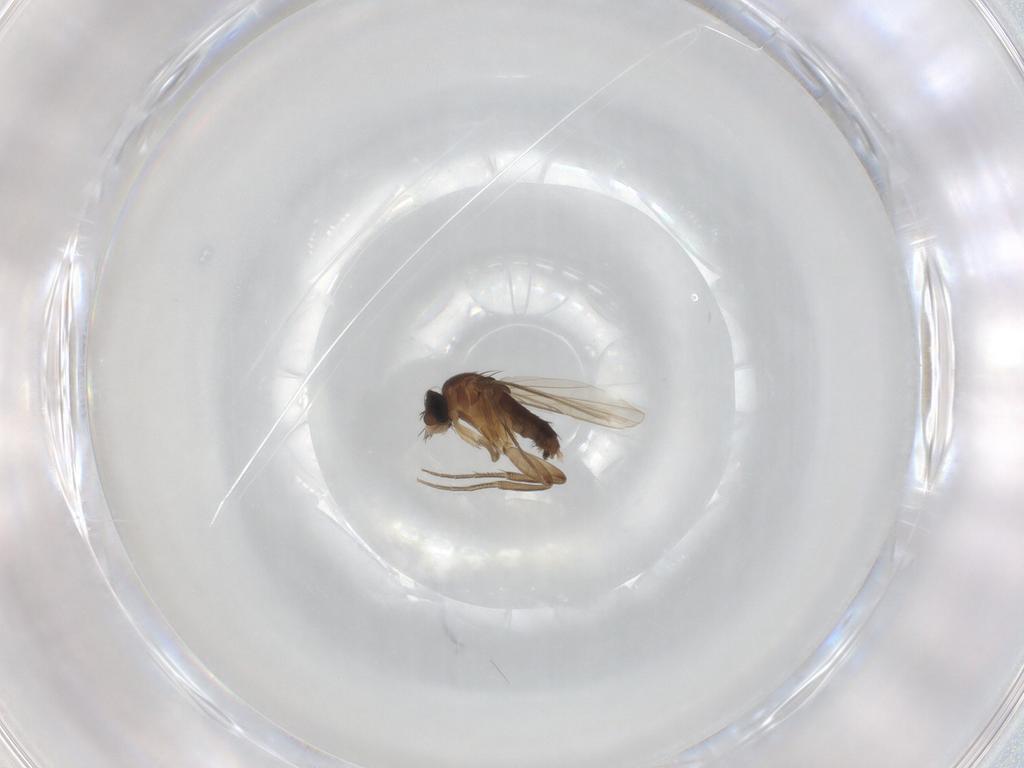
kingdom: Animalia
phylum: Arthropoda
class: Insecta
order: Diptera
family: Phoridae
